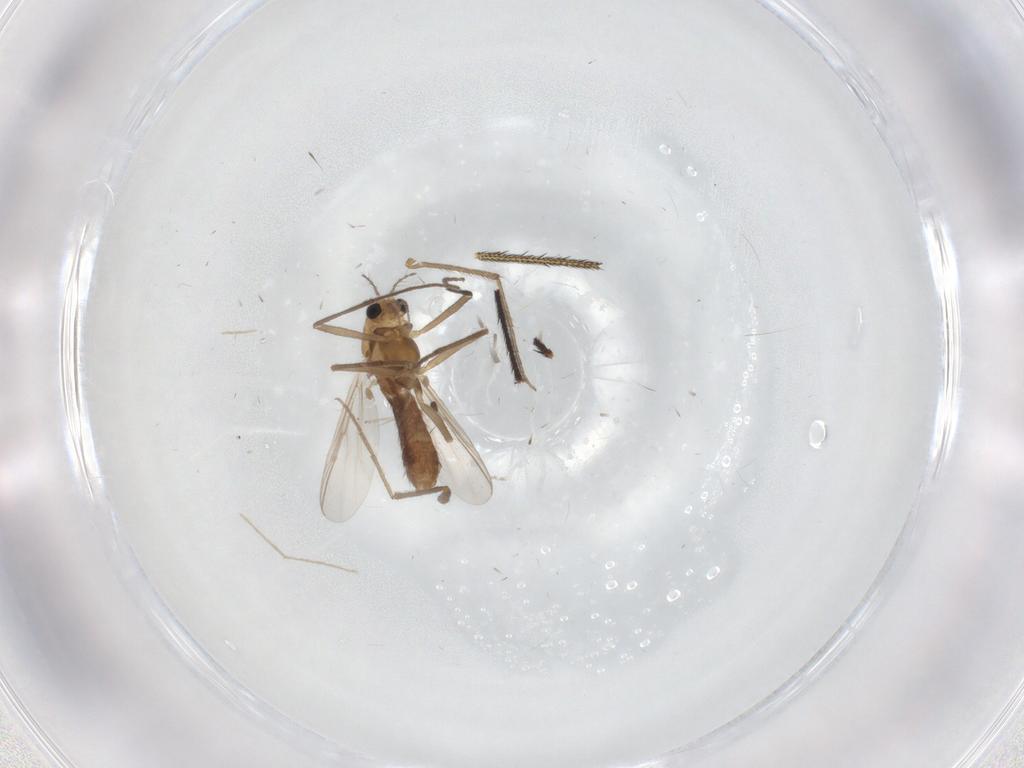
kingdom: Animalia
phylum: Arthropoda
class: Insecta
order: Diptera
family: Chironomidae
